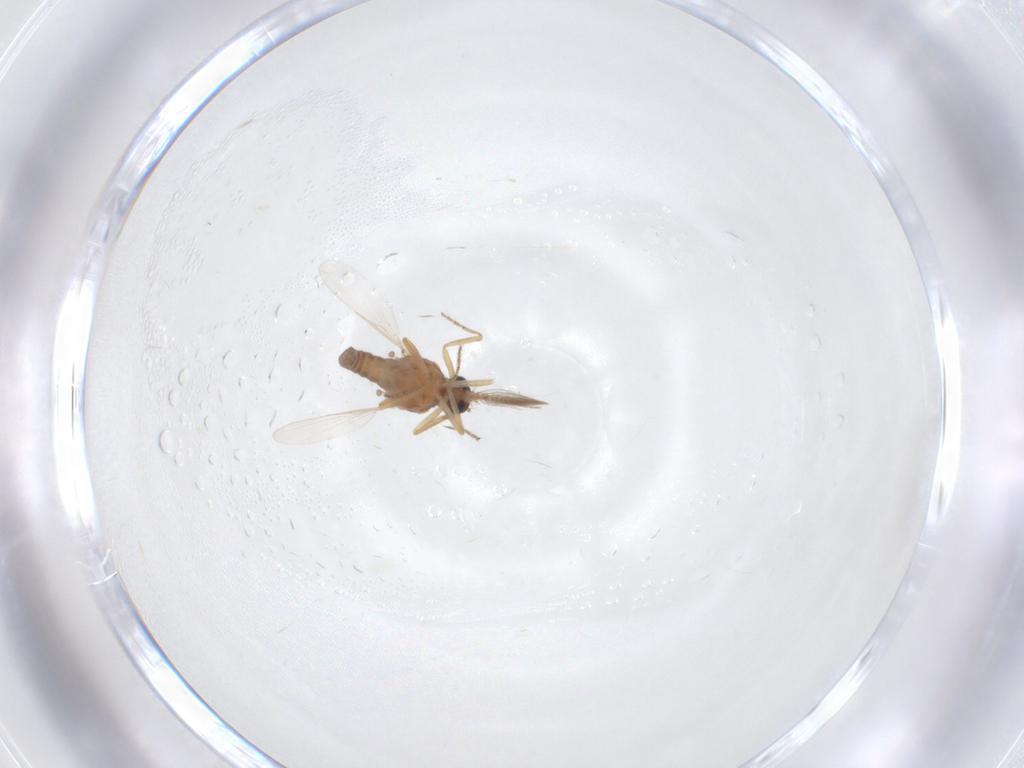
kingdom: Animalia
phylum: Arthropoda
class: Insecta
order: Diptera
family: Ceratopogonidae
